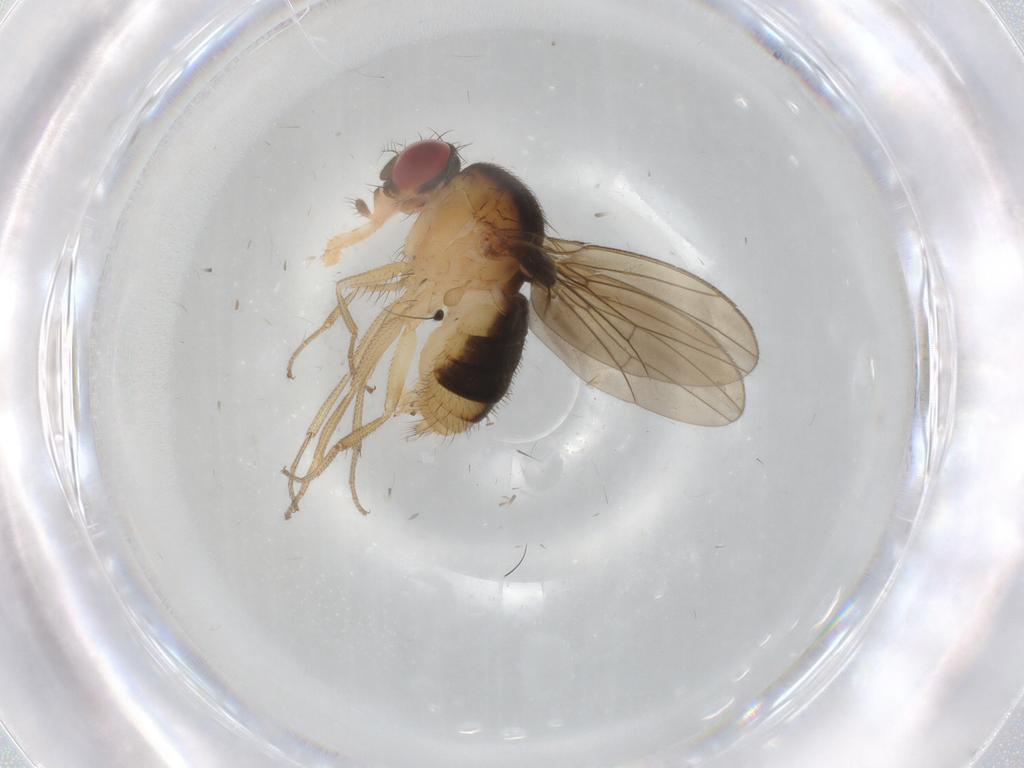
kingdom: Animalia
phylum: Arthropoda
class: Insecta
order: Diptera
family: Drosophilidae
